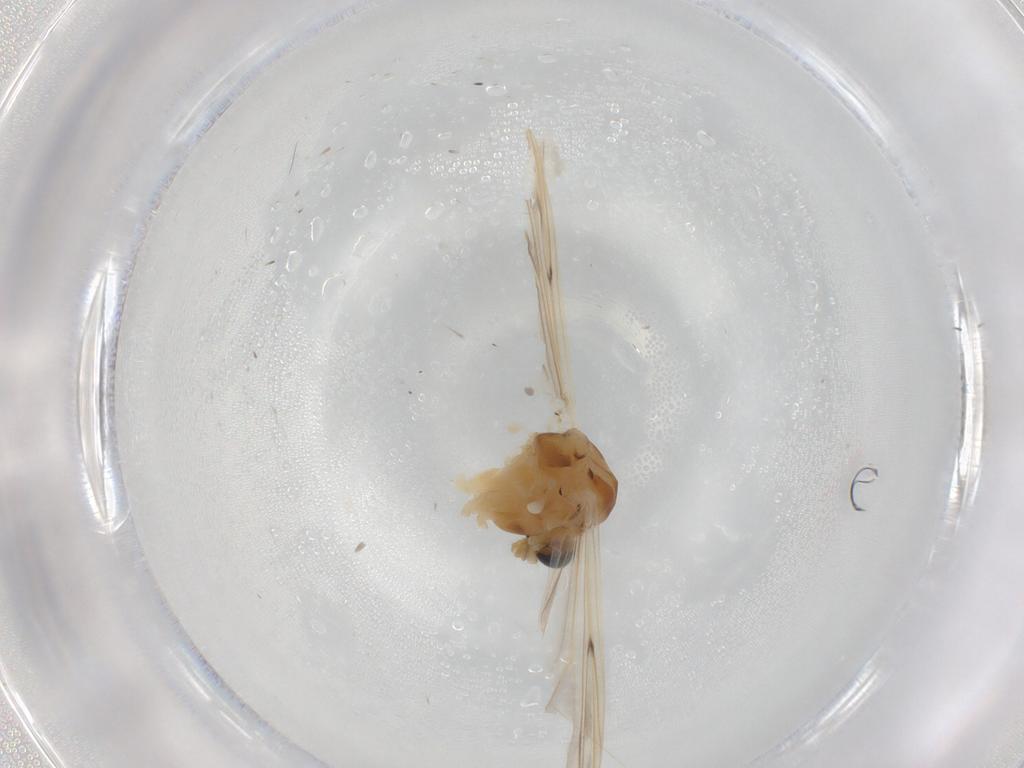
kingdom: Animalia
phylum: Arthropoda
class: Insecta
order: Diptera
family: Chironomidae
